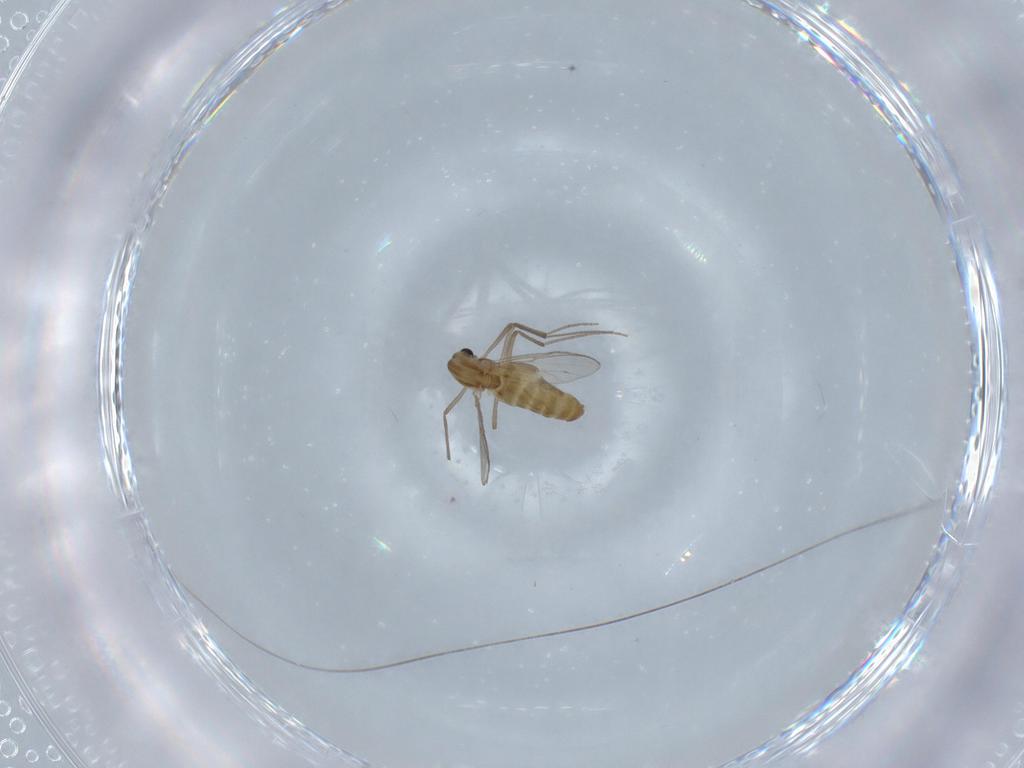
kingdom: Animalia
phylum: Arthropoda
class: Insecta
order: Diptera
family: Chironomidae
